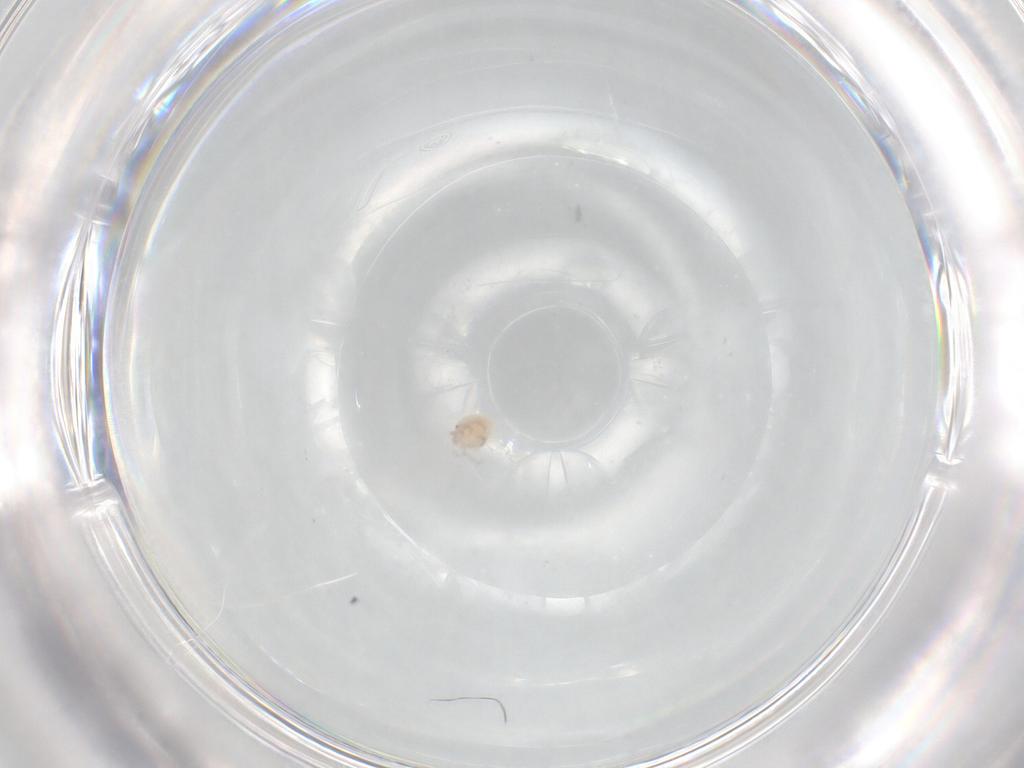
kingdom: Animalia
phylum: Arthropoda
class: Arachnida
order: Trombidiformes
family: Lebertiidae
